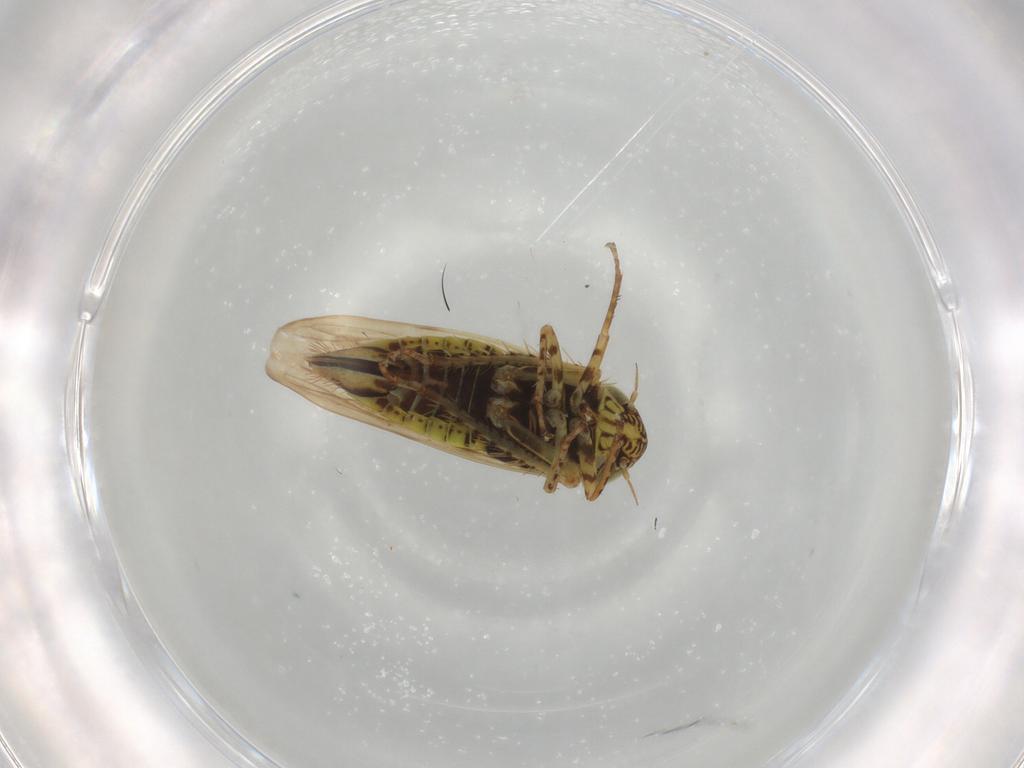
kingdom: Animalia
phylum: Arthropoda
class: Insecta
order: Hemiptera
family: Cicadellidae
